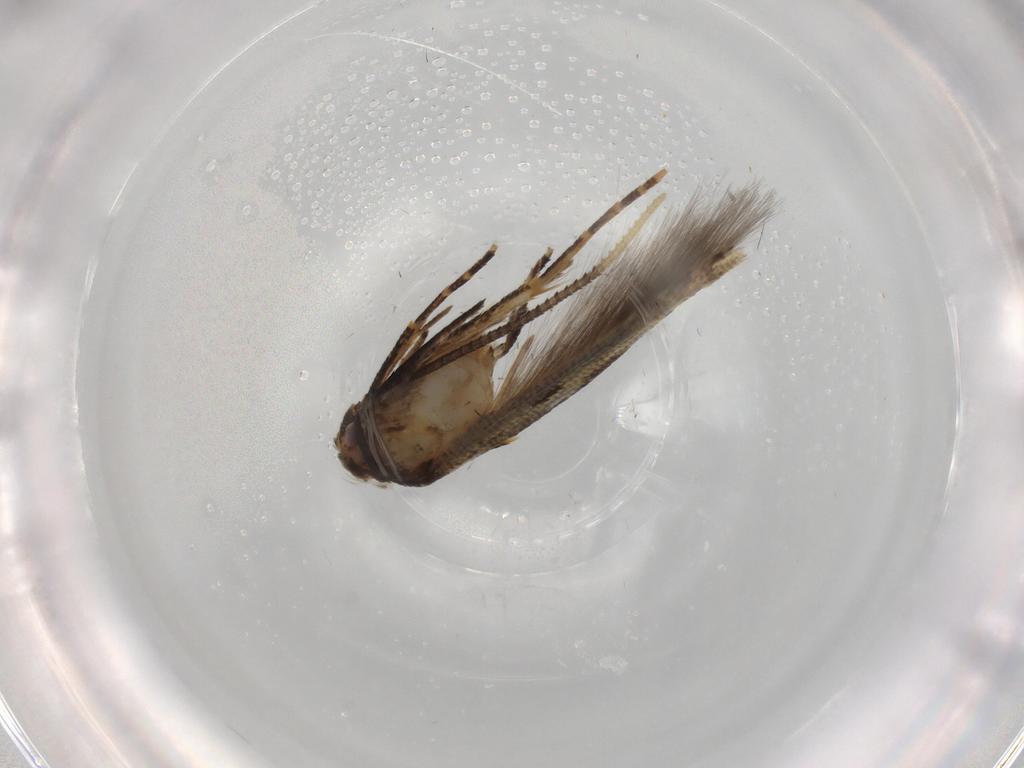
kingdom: Animalia
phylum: Arthropoda
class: Insecta
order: Lepidoptera
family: Cosmopterigidae
